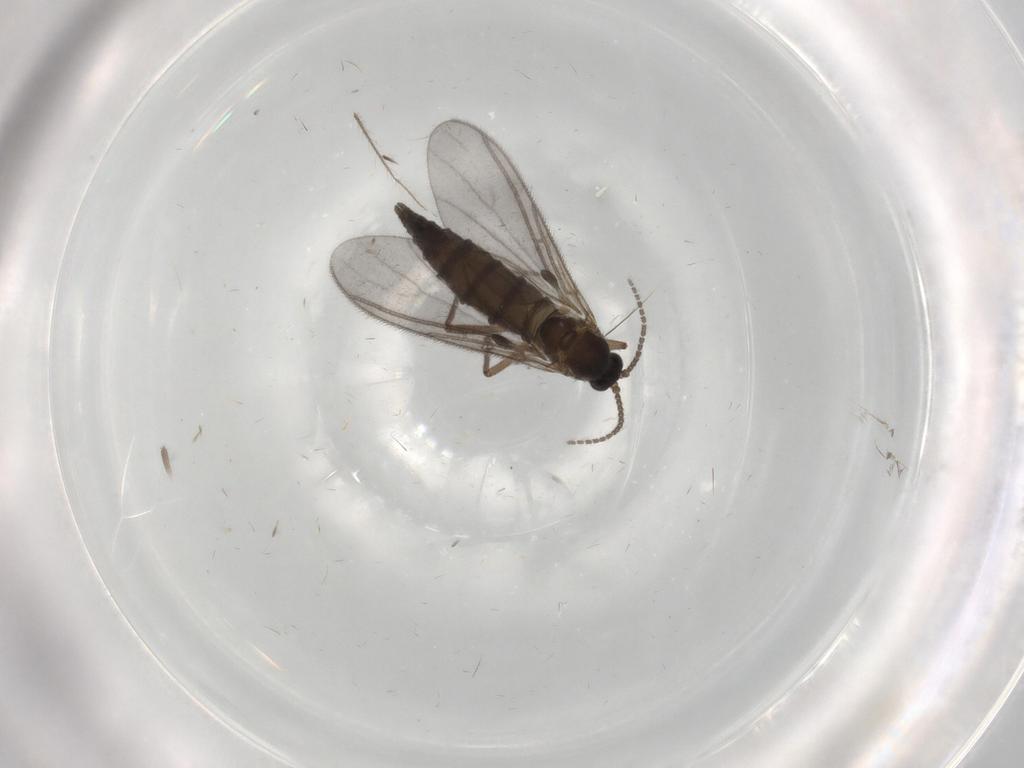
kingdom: Animalia
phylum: Arthropoda
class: Insecta
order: Diptera
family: Sciaridae
